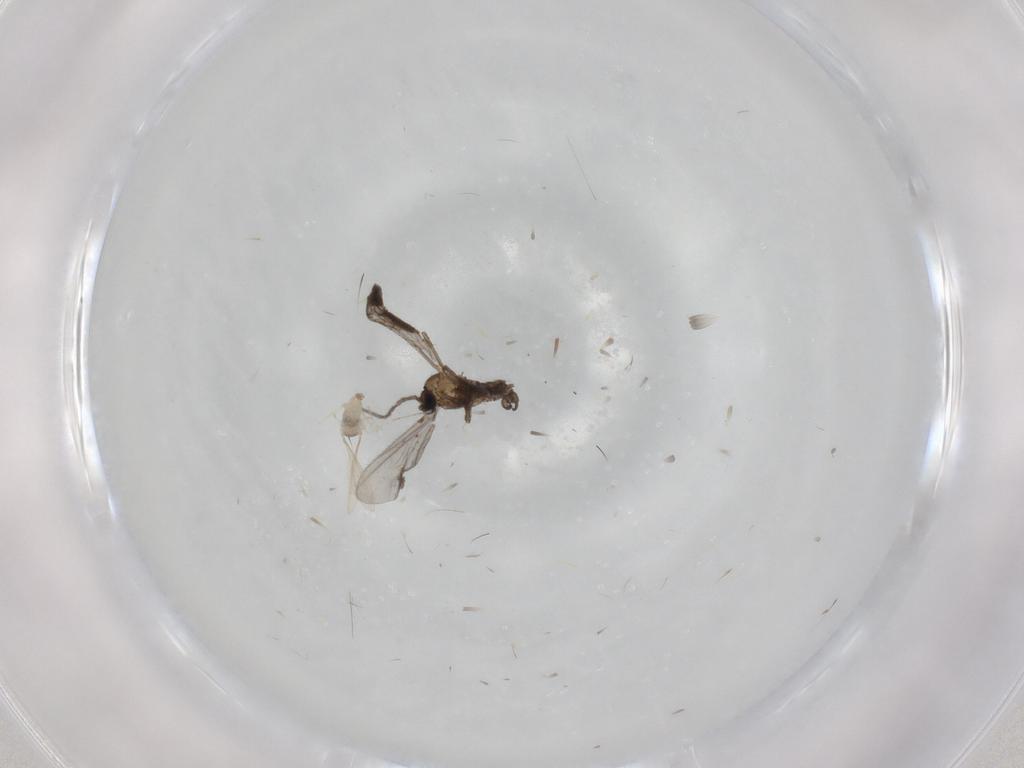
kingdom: Animalia
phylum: Arthropoda
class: Insecta
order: Diptera
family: Sciaridae
